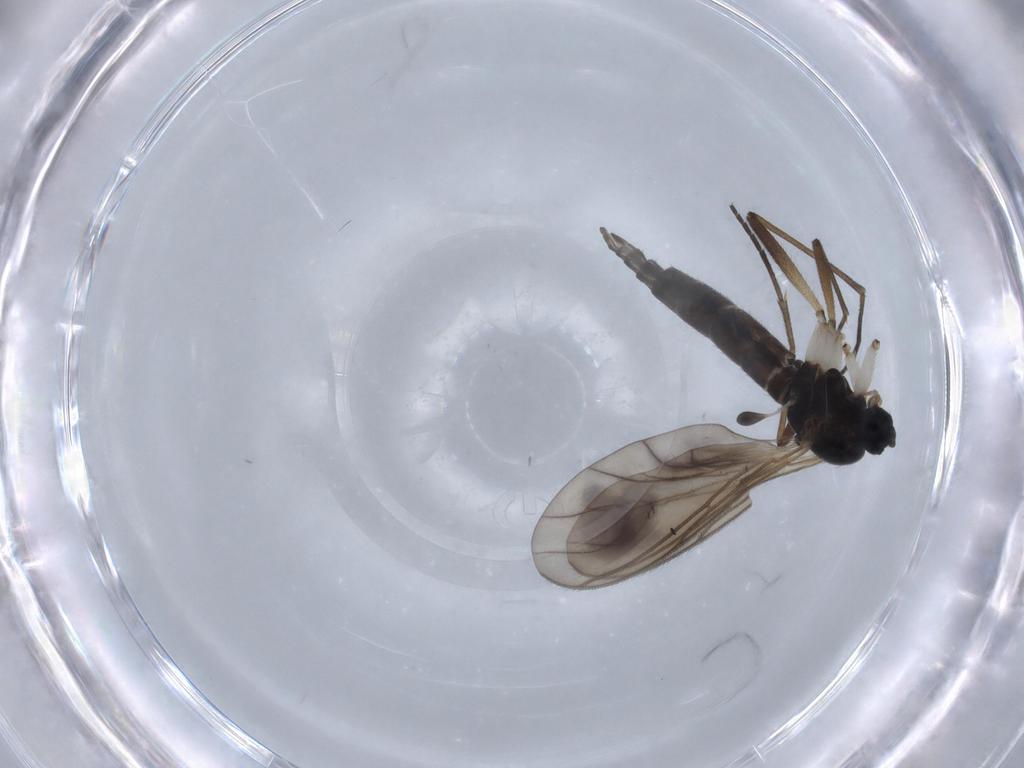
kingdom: Animalia
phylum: Arthropoda
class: Insecta
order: Diptera
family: Sciaridae
